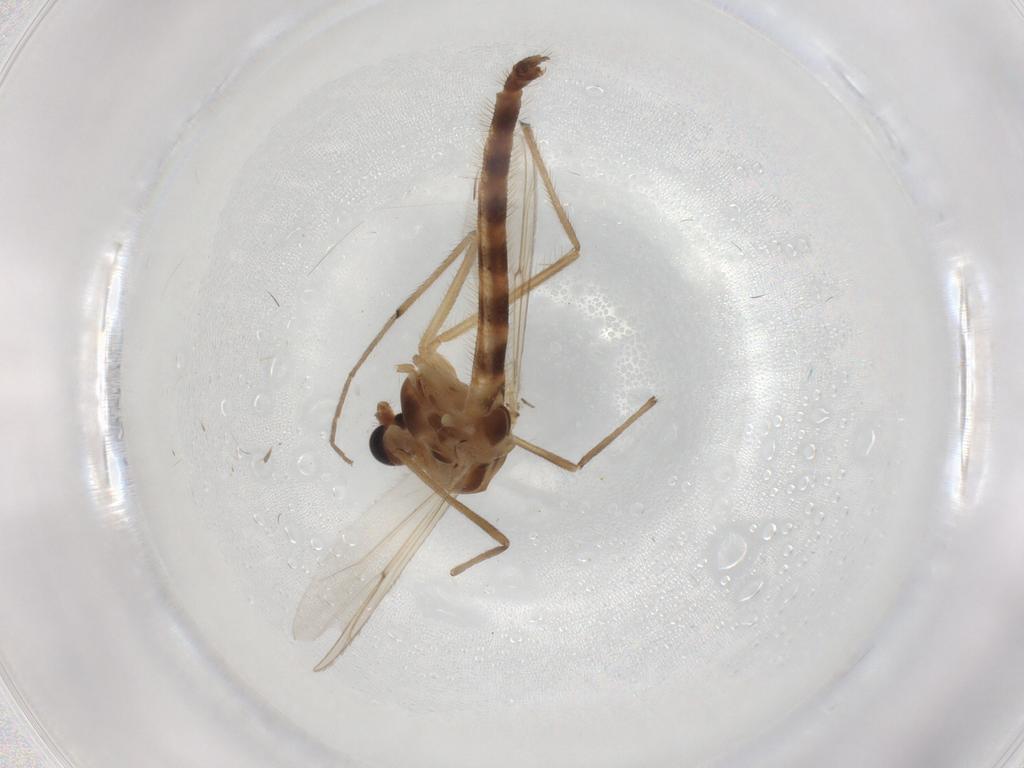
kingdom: Animalia
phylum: Arthropoda
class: Insecta
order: Diptera
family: Chironomidae
